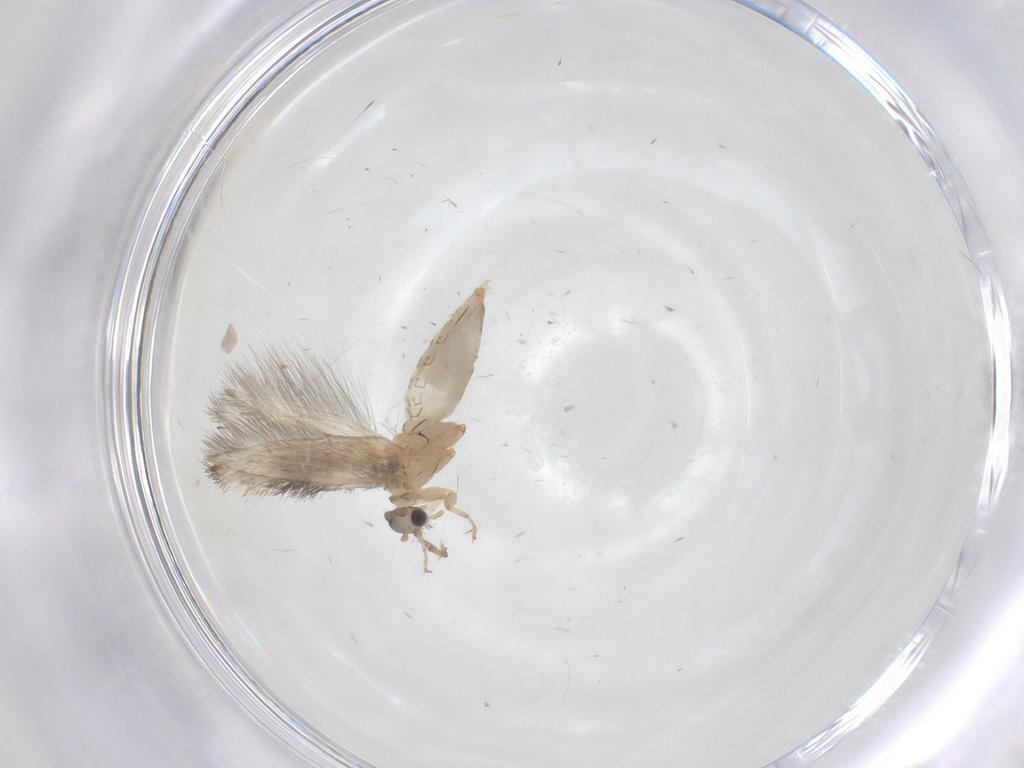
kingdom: Animalia
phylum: Arthropoda
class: Insecta
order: Trichoptera
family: Hydroptilidae
